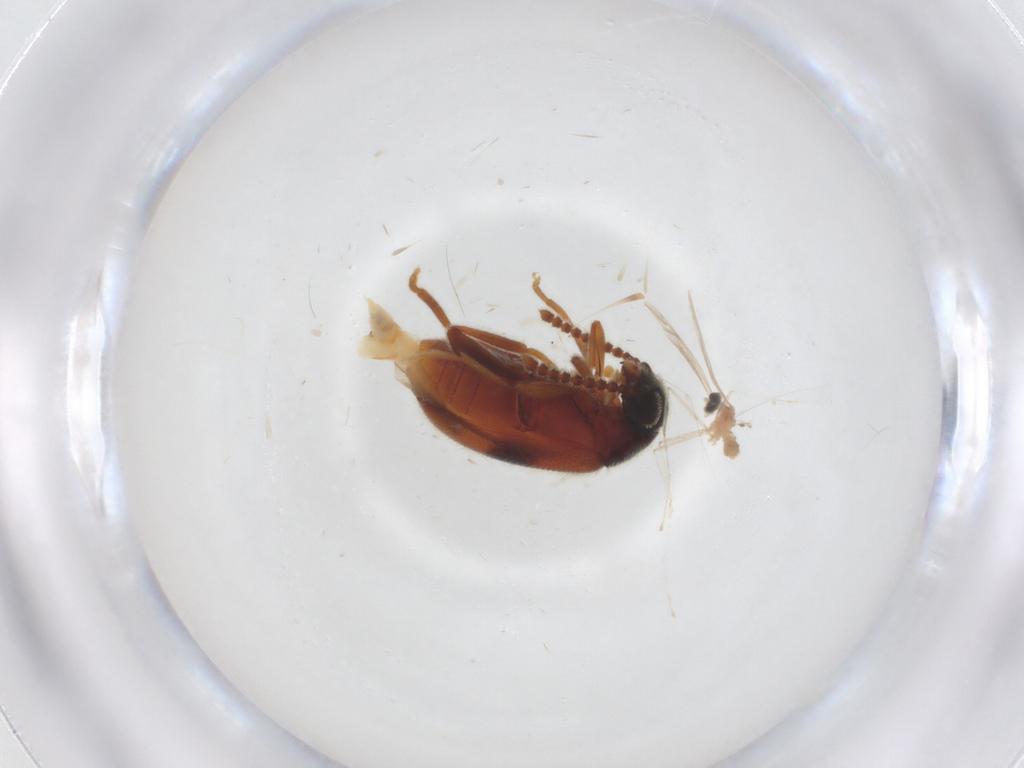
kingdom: Animalia
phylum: Arthropoda
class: Insecta
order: Coleoptera
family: Aderidae
